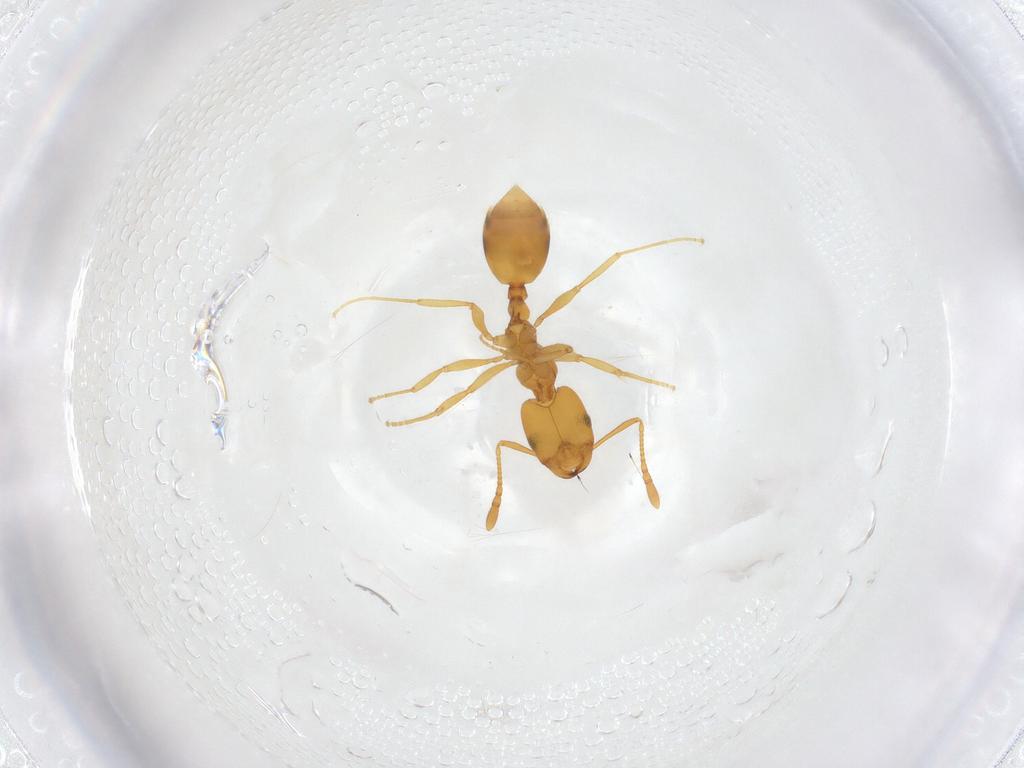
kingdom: Animalia
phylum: Arthropoda
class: Insecta
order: Hymenoptera
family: Formicidae
